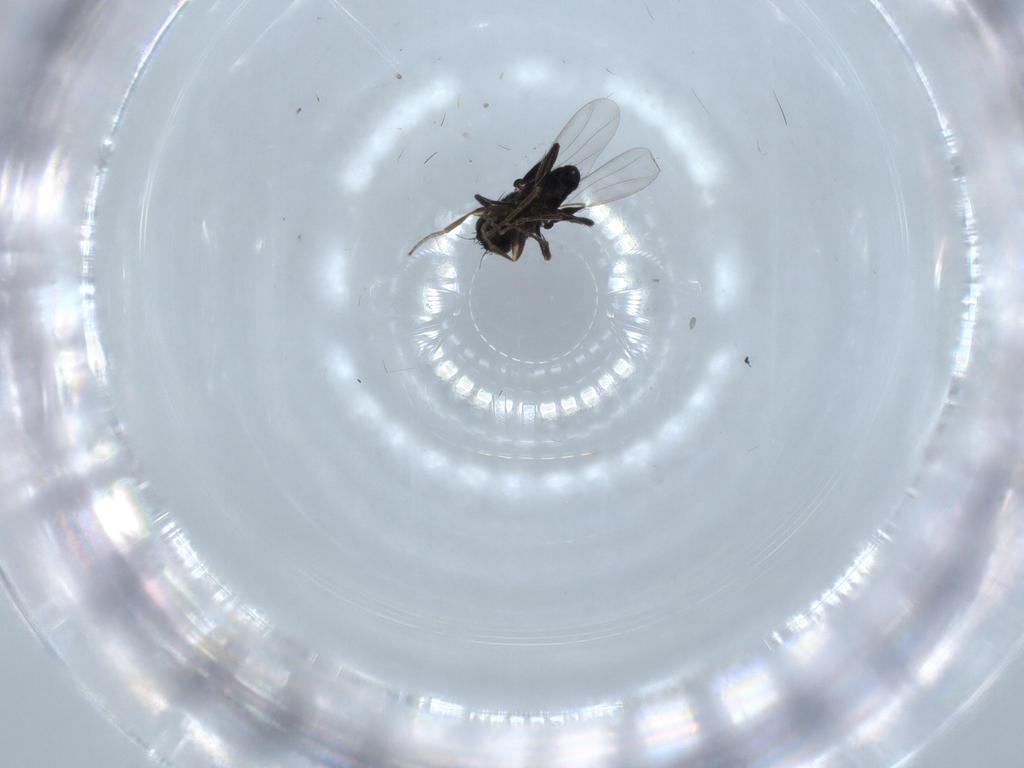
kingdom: Animalia
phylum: Arthropoda
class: Insecta
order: Diptera
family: Phoridae
